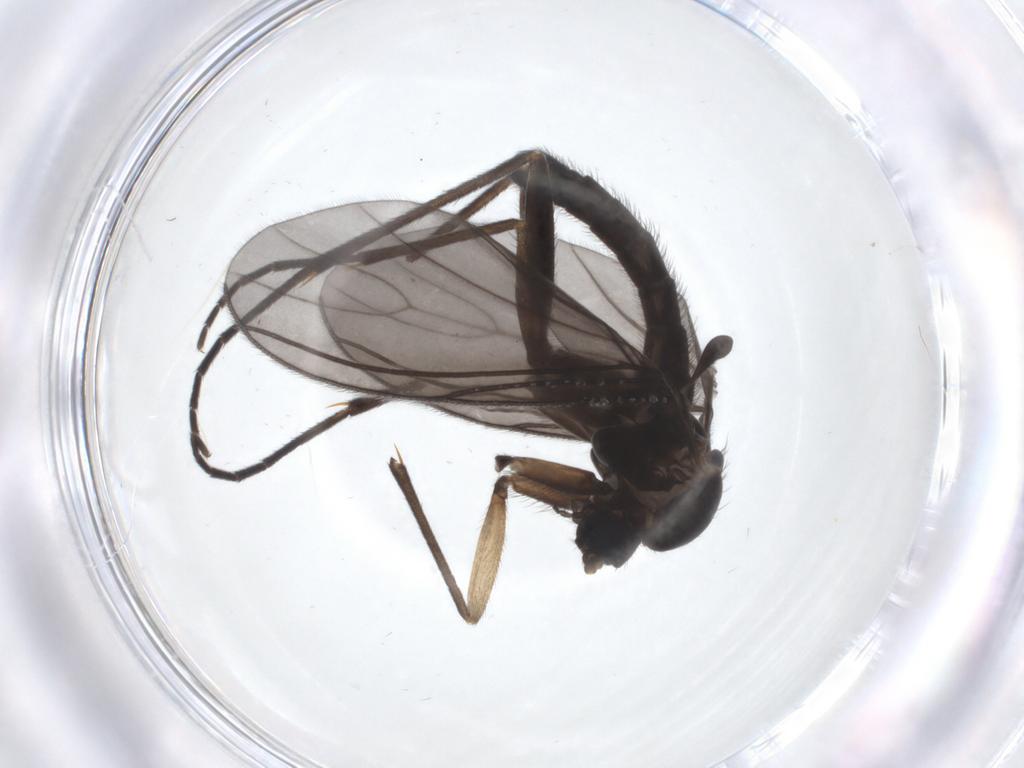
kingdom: Animalia
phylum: Arthropoda
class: Insecta
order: Diptera
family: Sciaridae
